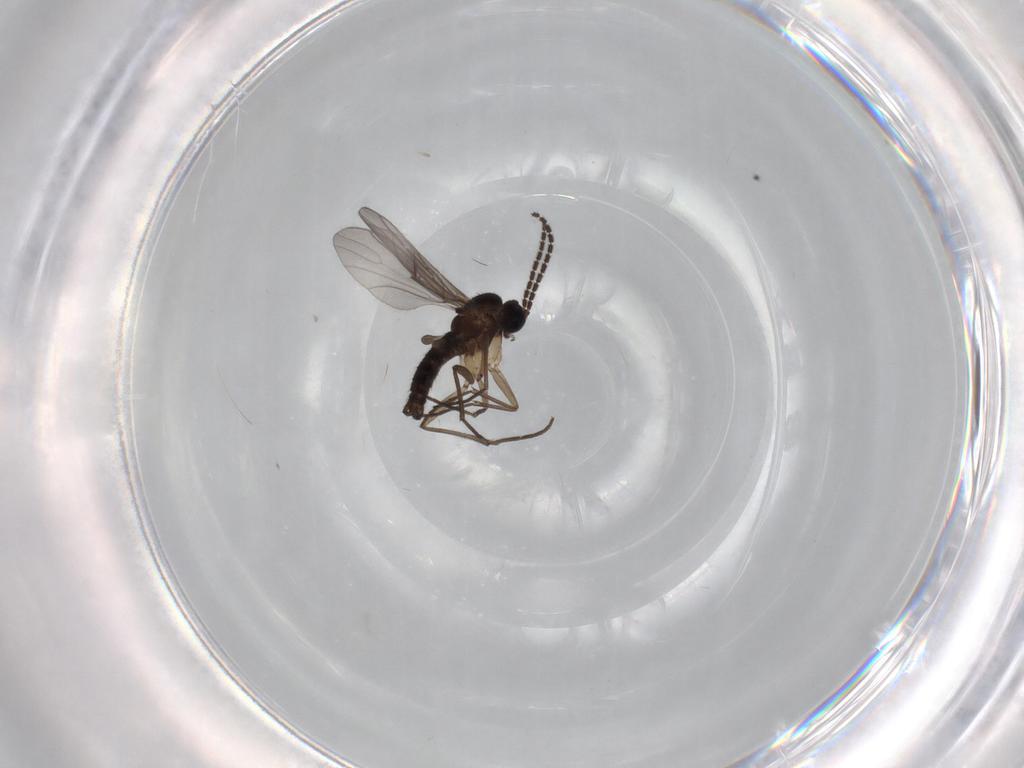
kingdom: Animalia
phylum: Arthropoda
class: Insecta
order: Diptera
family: Sciaridae
